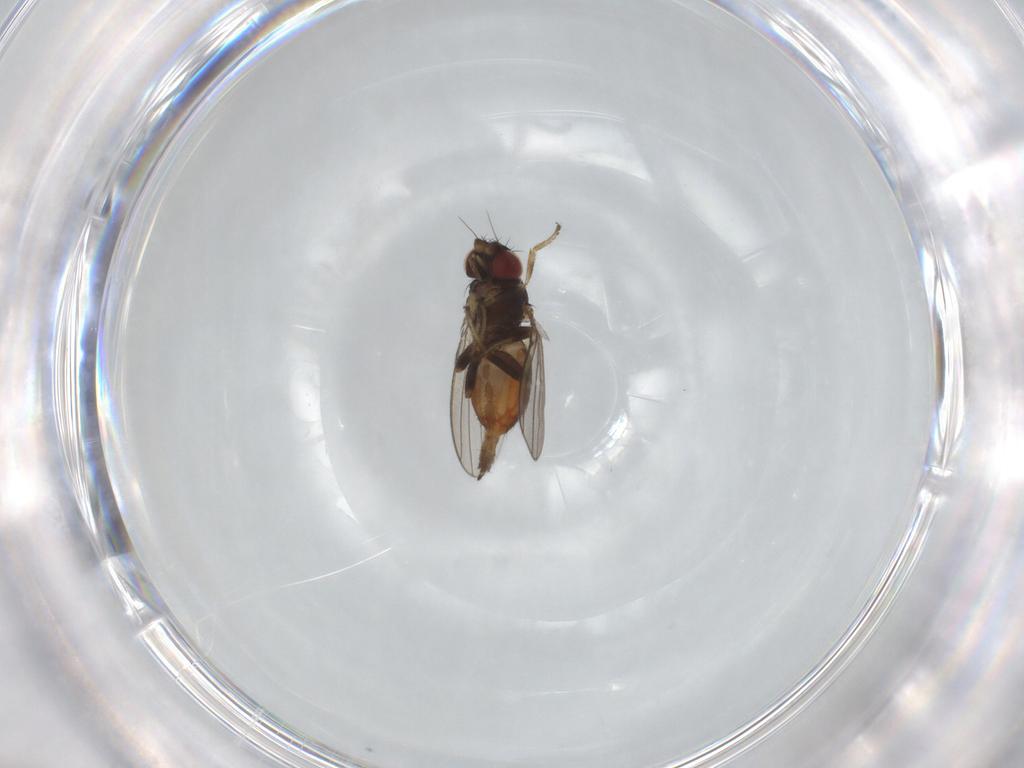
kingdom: Animalia
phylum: Arthropoda
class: Insecta
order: Diptera
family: Milichiidae
